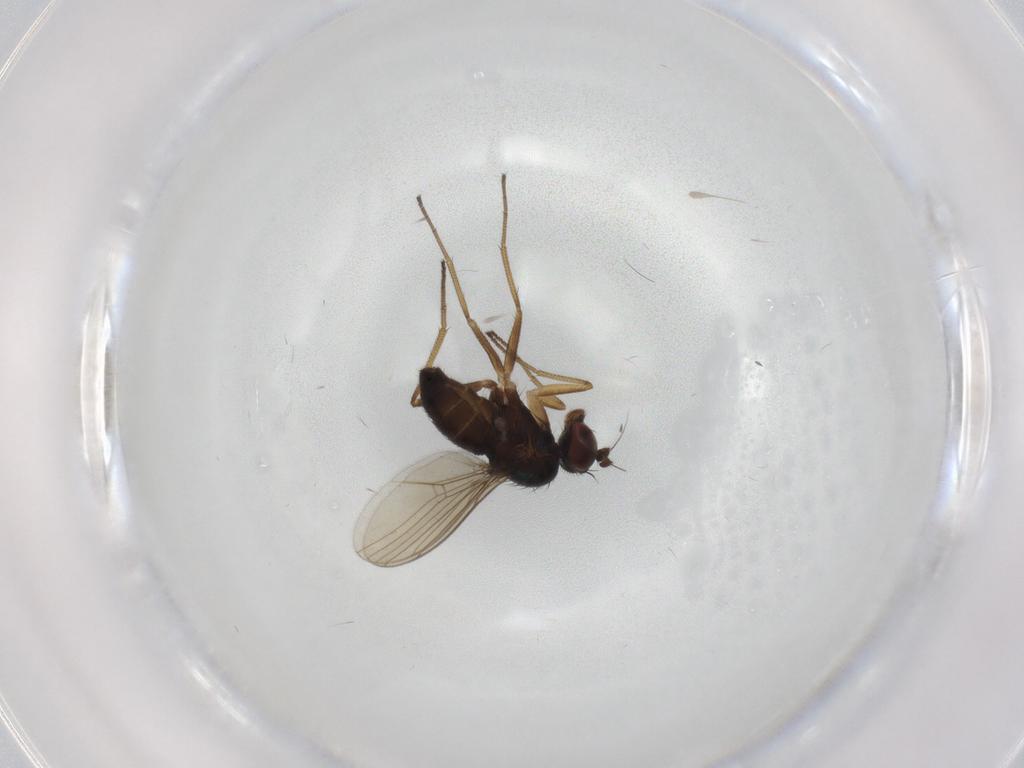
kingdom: Animalia
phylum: Arthropoda
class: Insecta
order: Diptera
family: Dolichopodidae
